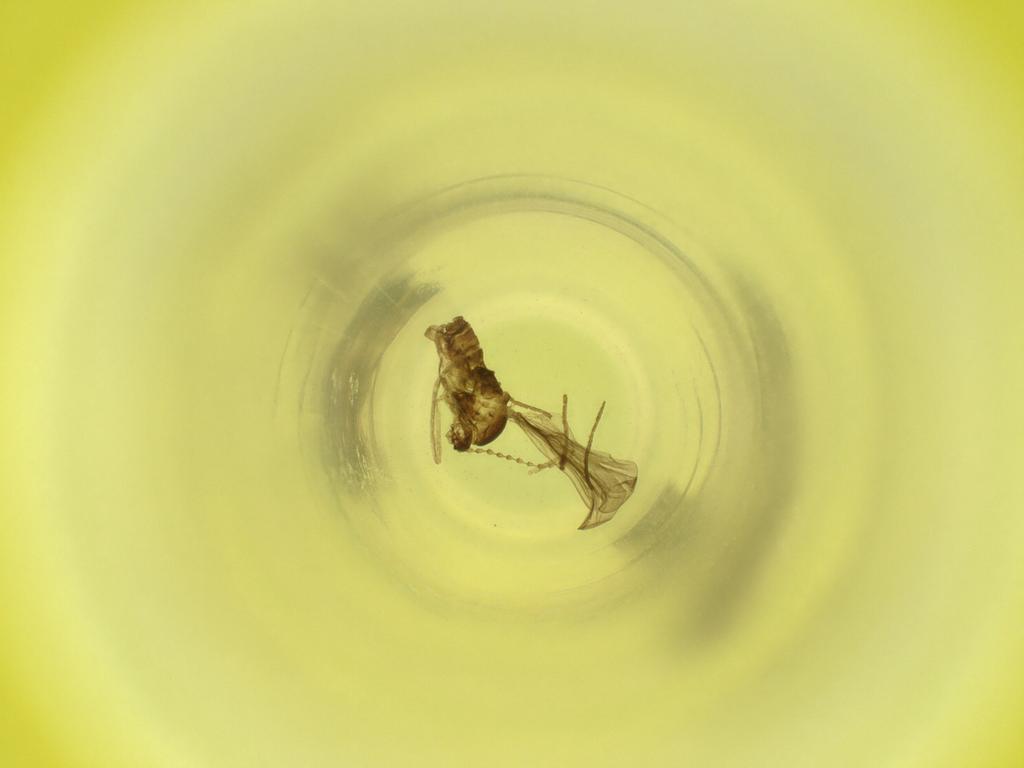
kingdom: Animalia
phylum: Arthropoda
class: Insecta
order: Diptera
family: Cecidomyiidae
